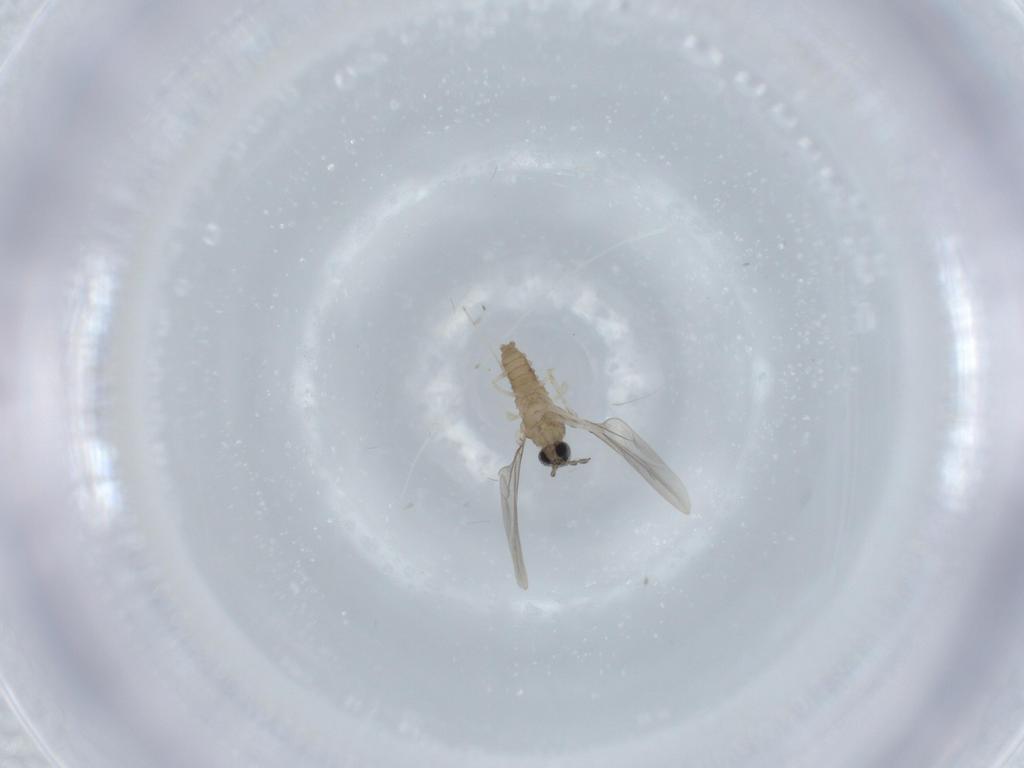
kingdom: Animalia
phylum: Arthropoda
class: Insecta
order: Diptera
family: Cecidomyiidae
